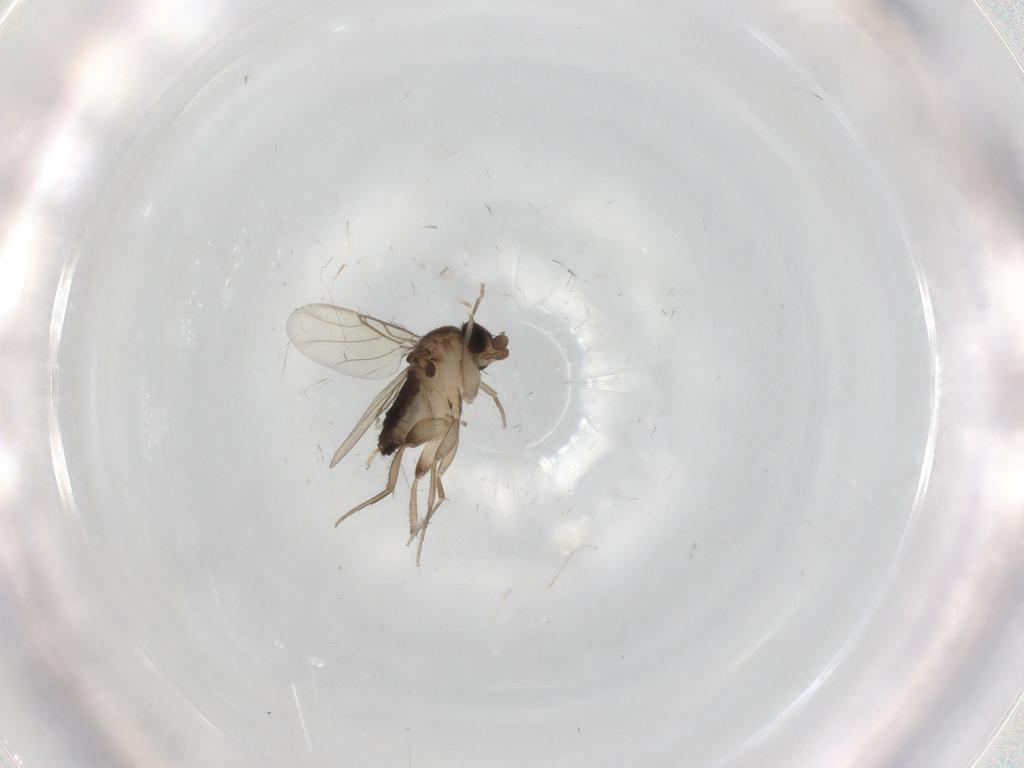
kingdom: Animalia
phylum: Arthropoda
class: Insecta
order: Diptera
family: Phoridae
